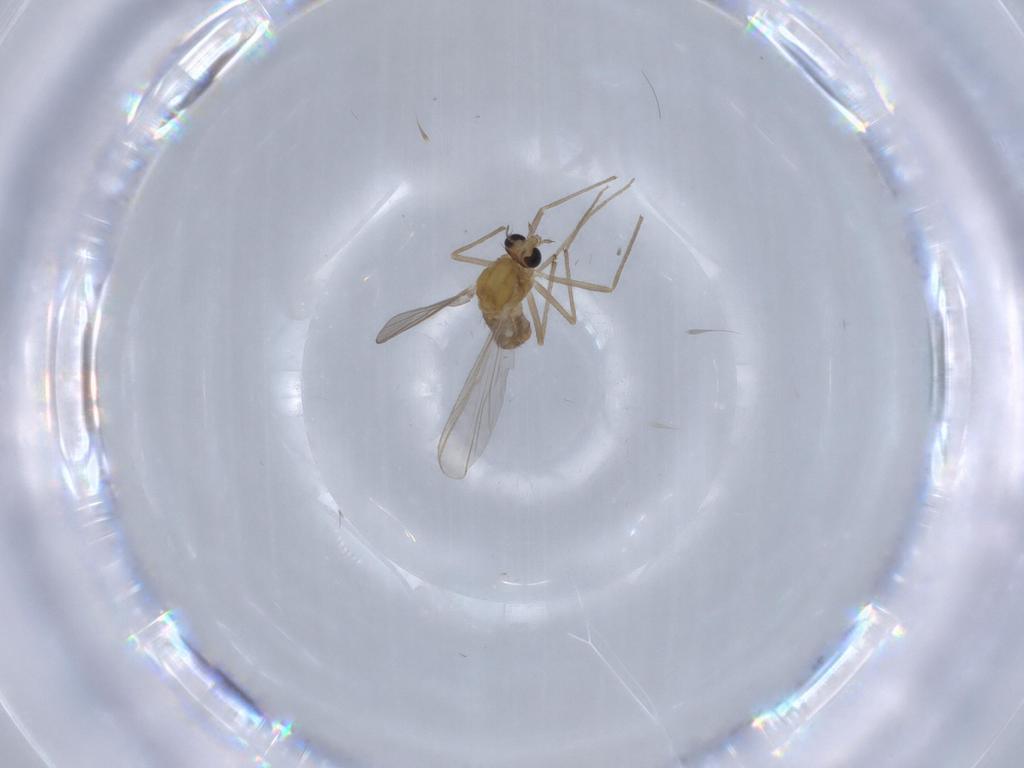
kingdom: Animalia
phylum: Arthropoda
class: Insecta
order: Diptera
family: Chironomidae
